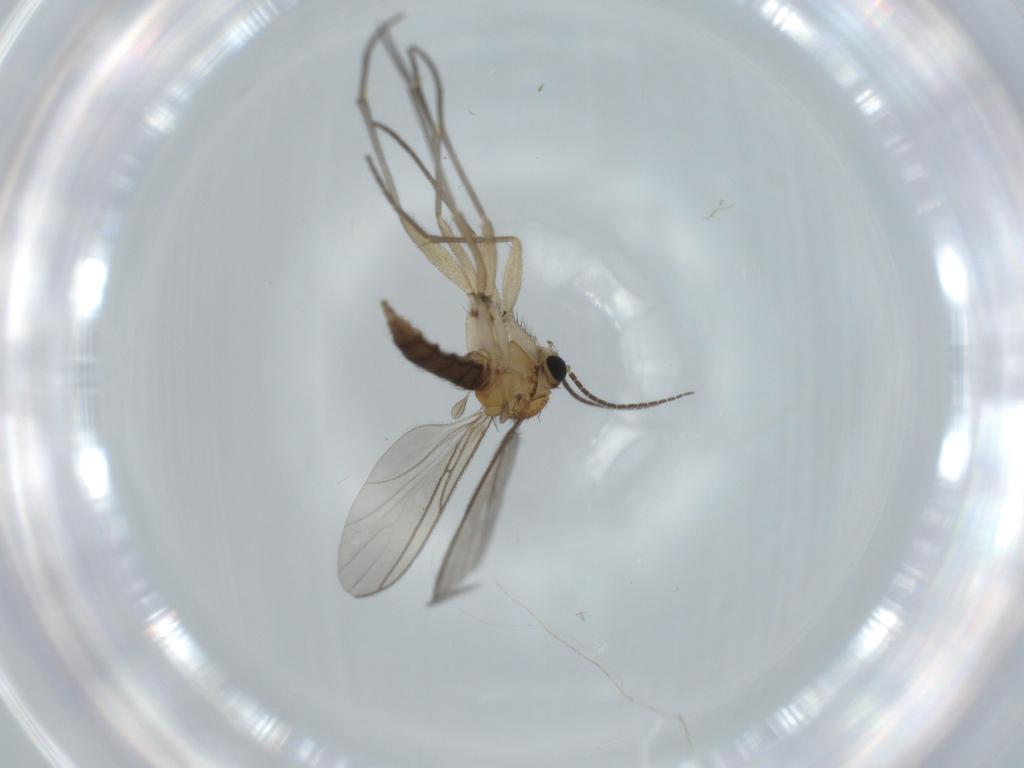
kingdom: Animalia
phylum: Arthropoda
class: Insecta
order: Diptera
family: Sciaridae
